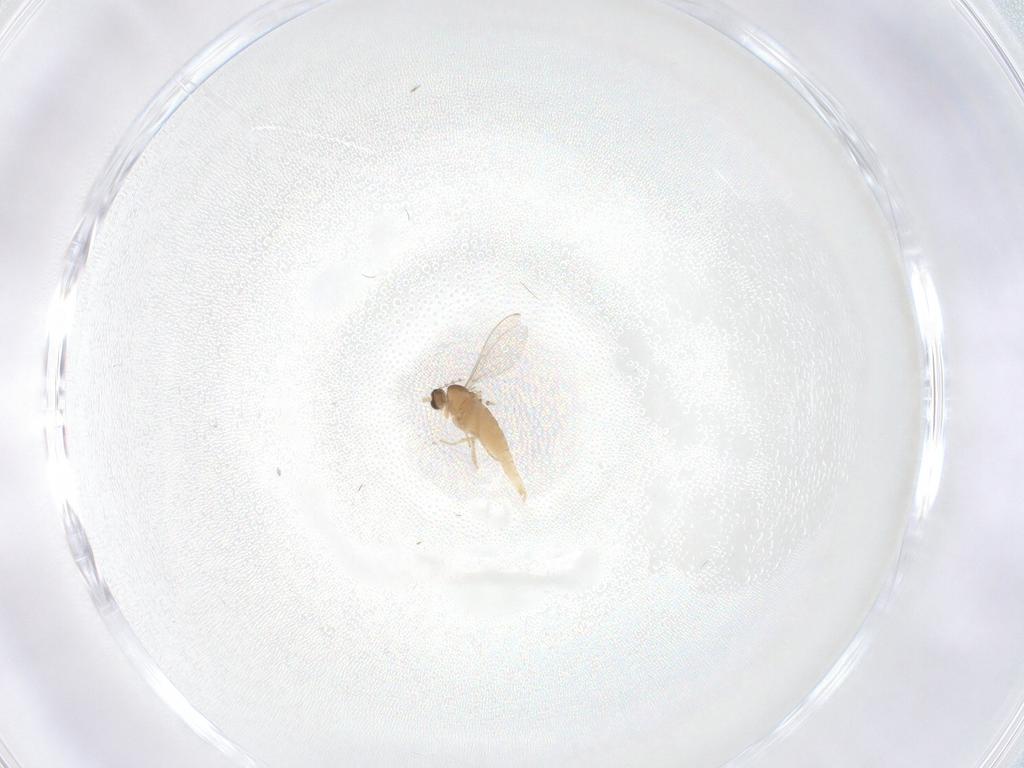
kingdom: Animalia
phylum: Arthropoda
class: Insecta
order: Diptera
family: Psychodidae
